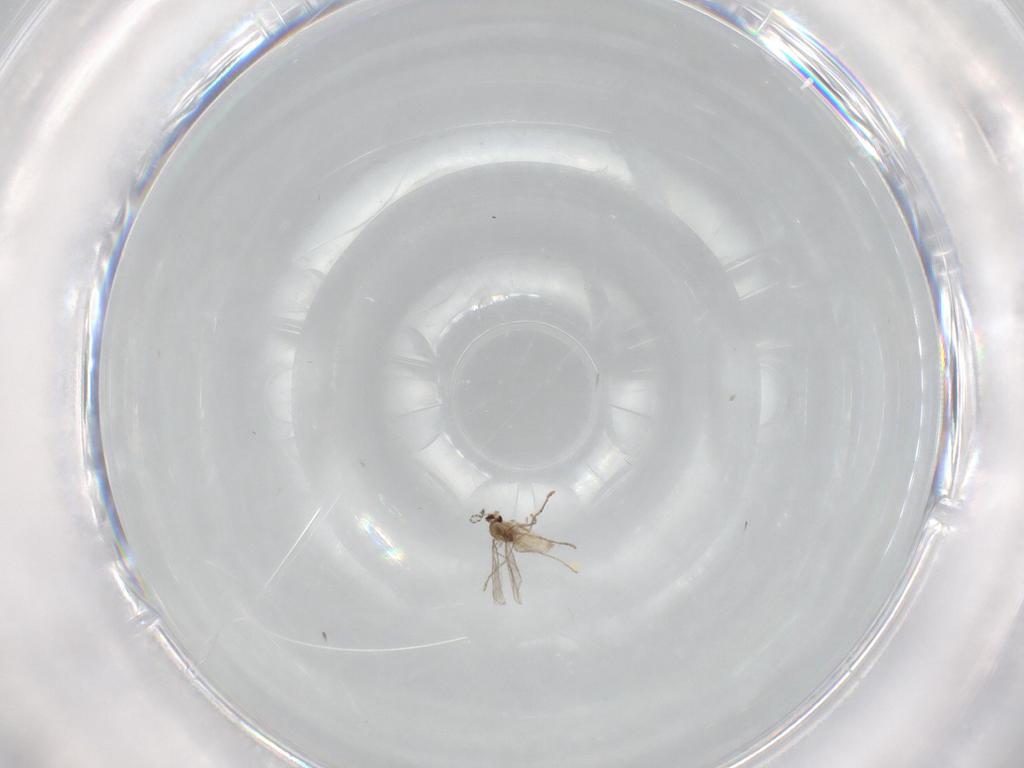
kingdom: Animalia
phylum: Arthropoda
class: Insecta
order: Diptera
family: Cecidomyiidae
